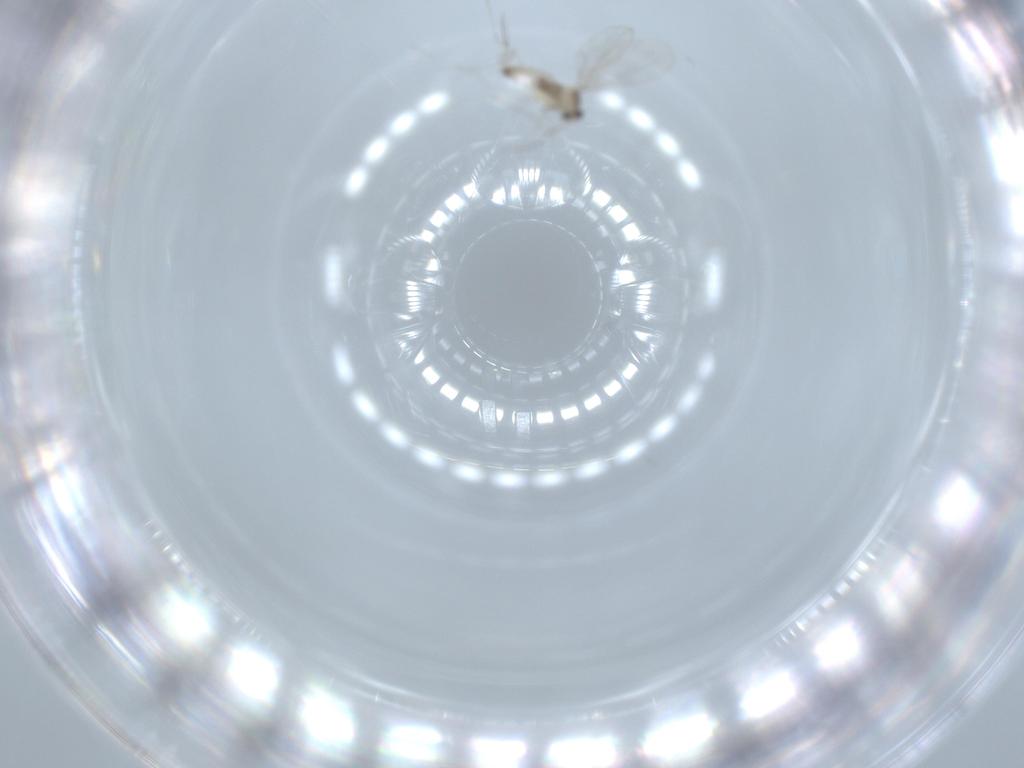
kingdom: Animalia
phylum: Arthropoda
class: Insecta
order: Diptera
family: Cecidomyiidae
